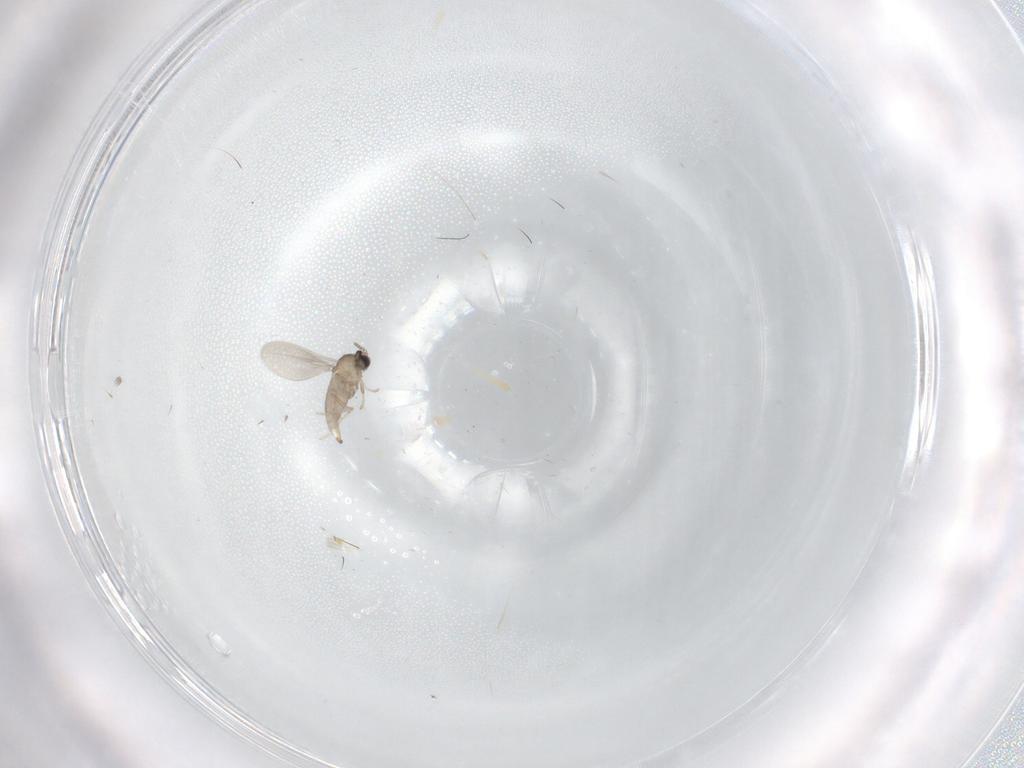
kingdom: Animalia
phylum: Arthropoda
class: Insecta
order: Diptera
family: Cecidomyiidae
